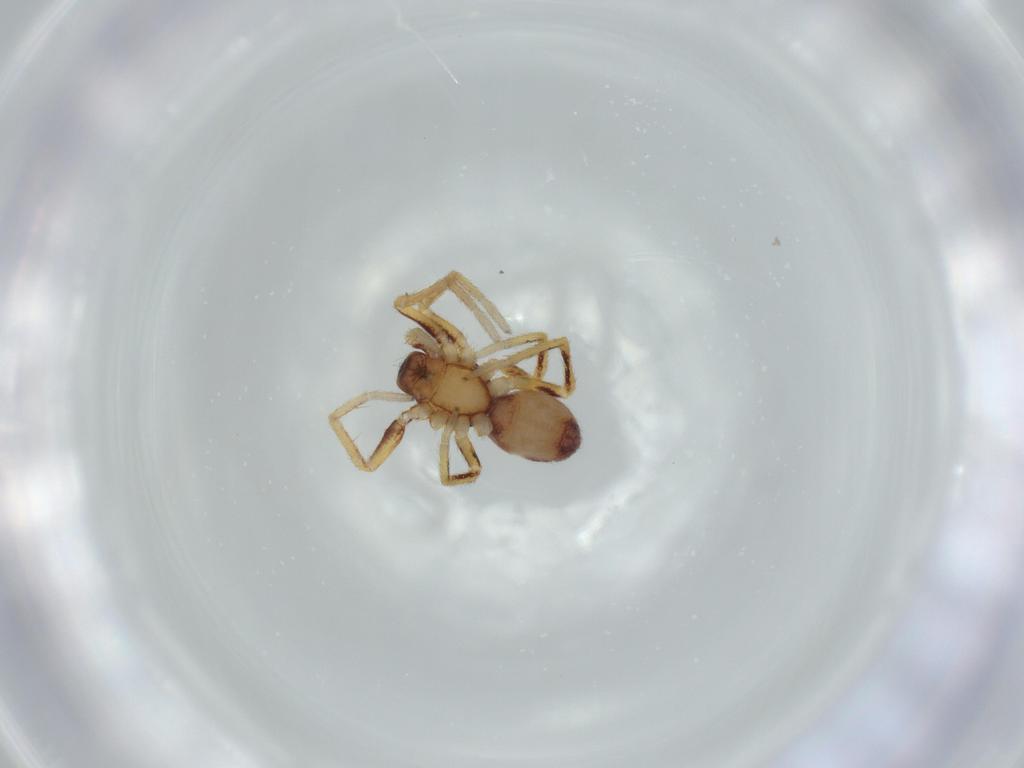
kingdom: Animalia
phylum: Arthropoda
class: Arachnida
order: Araneae
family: Corinnidae
